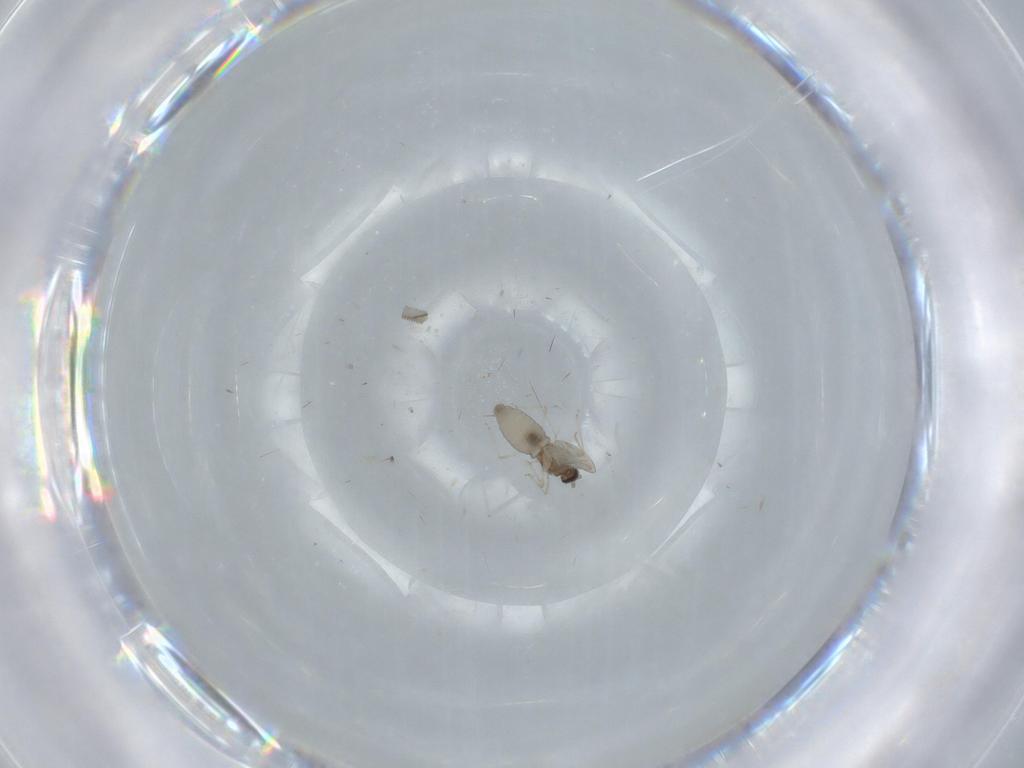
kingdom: Animalia
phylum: Arthropoda
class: Insecta
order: Diptera
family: Cecidomyiidae
